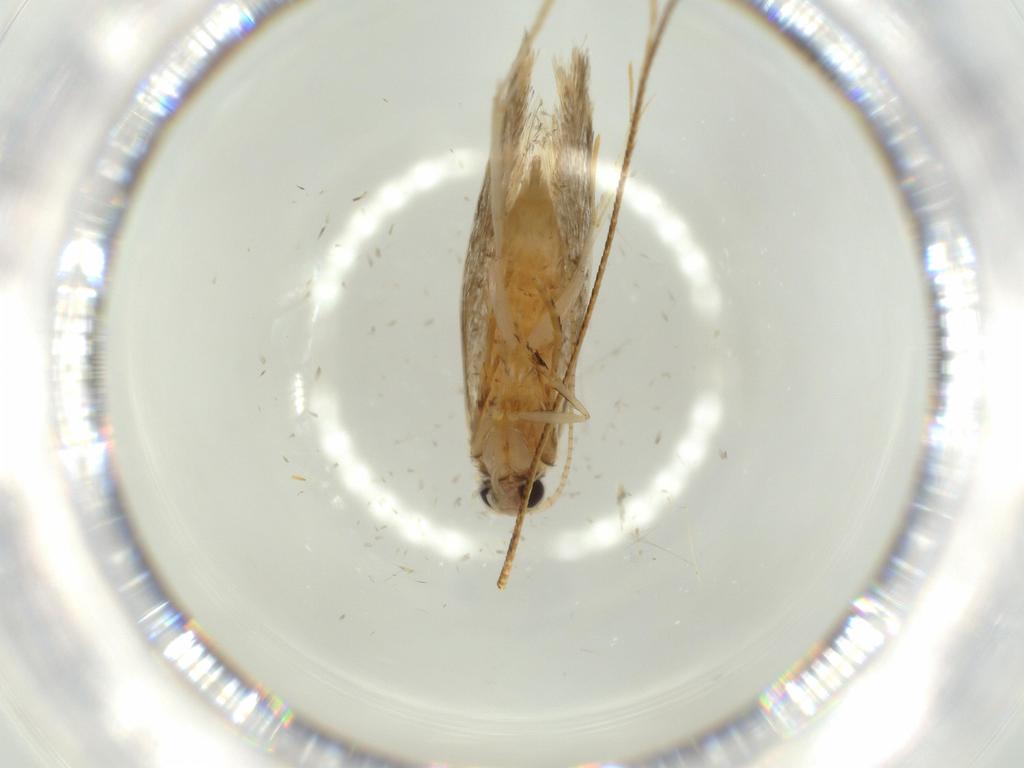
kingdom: Animalia
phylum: Arthropoda
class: Insecta
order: Lepidoptera
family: Tineidae
